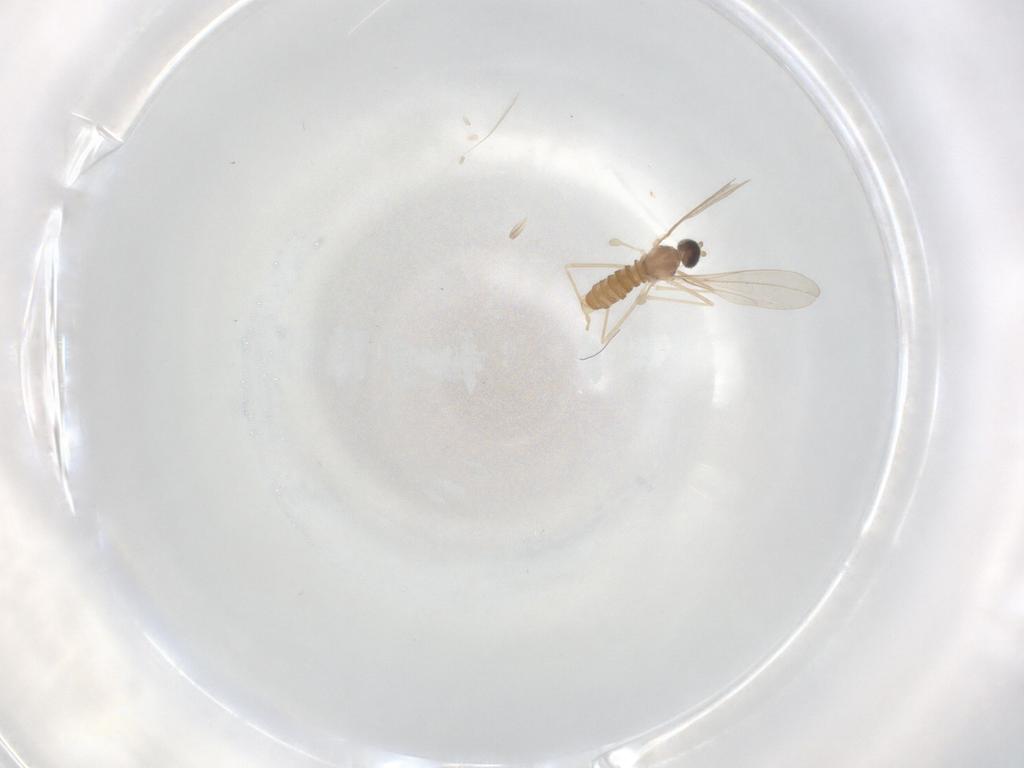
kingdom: Animalia
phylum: Arthropoda
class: Insecta
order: Diptera
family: Cecidomyiidae
